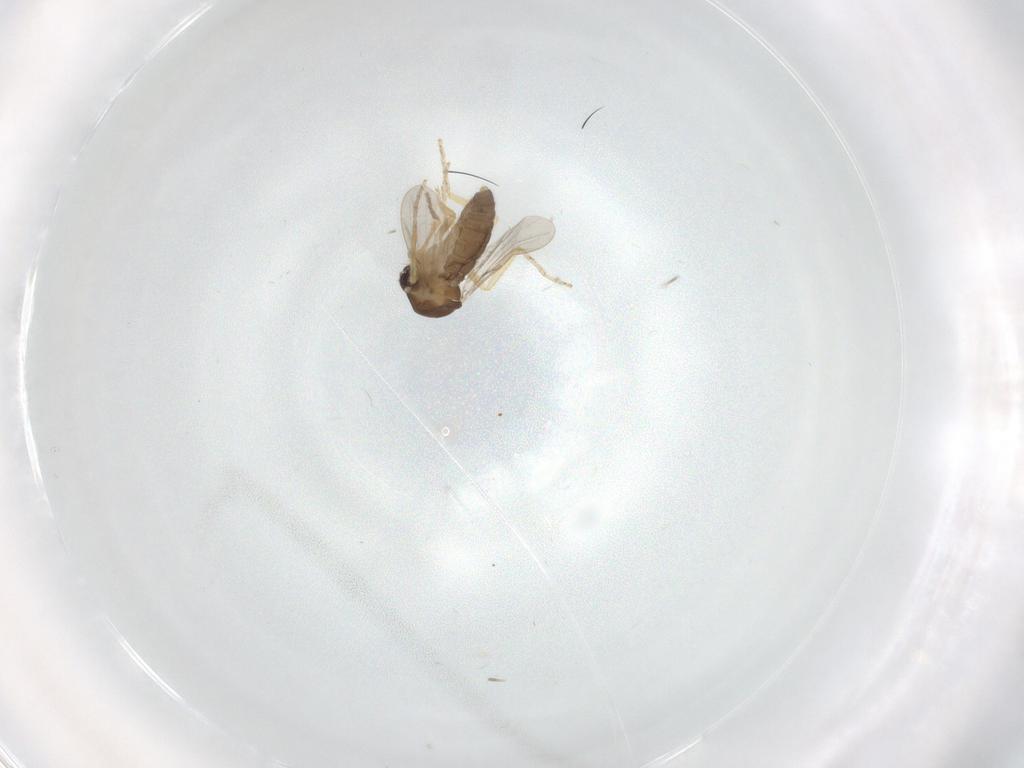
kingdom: Animalia
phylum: Arthropoda
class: Insecta
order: Diptera
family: Ceratopogonidae
